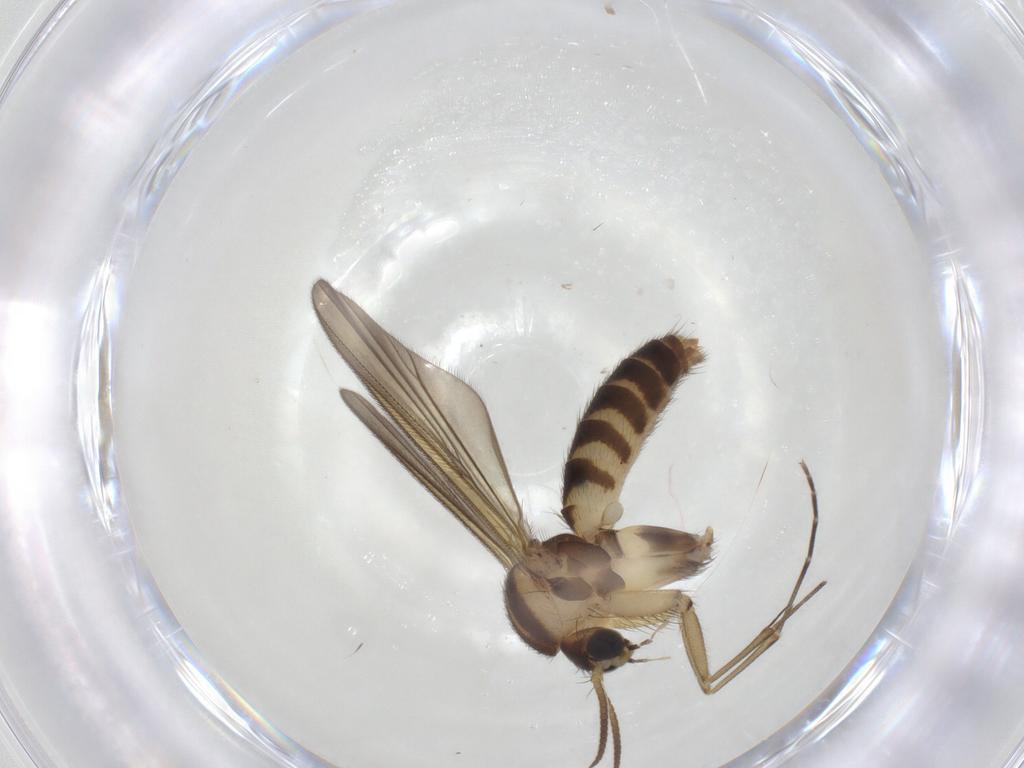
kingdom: Animalia
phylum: Arthropoda
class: Insecta
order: Diptera
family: Mycetophilidae
